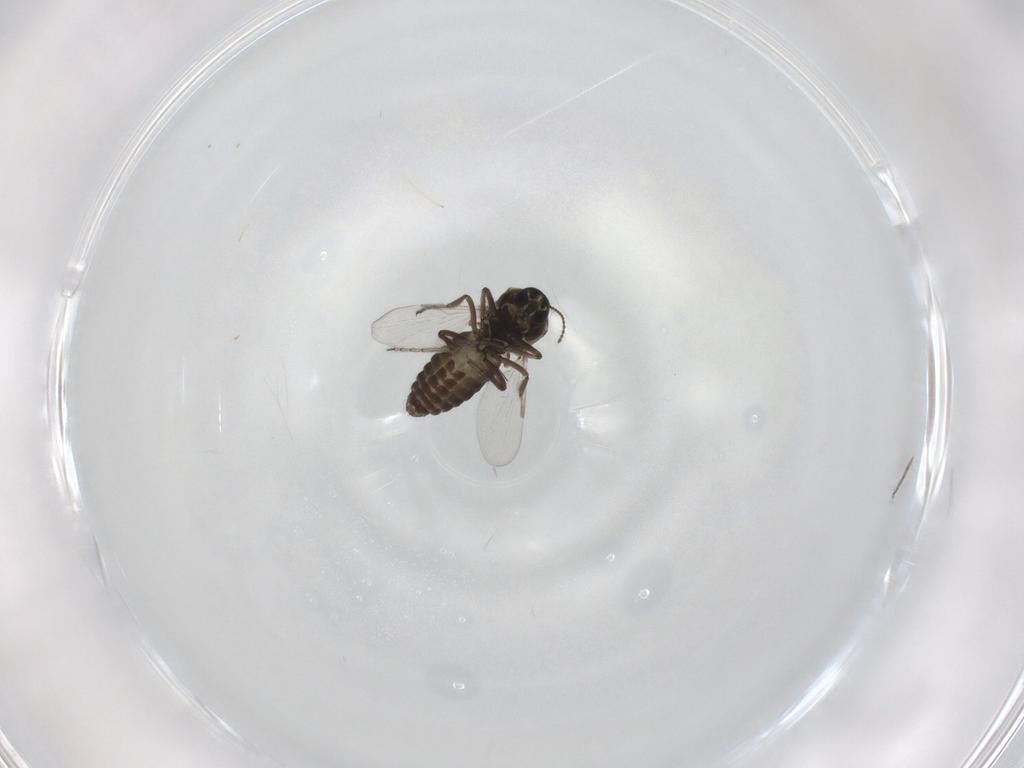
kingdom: Animalia
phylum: Arthropoda
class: Insecta
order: Diptera
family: Ceratopogonidae
